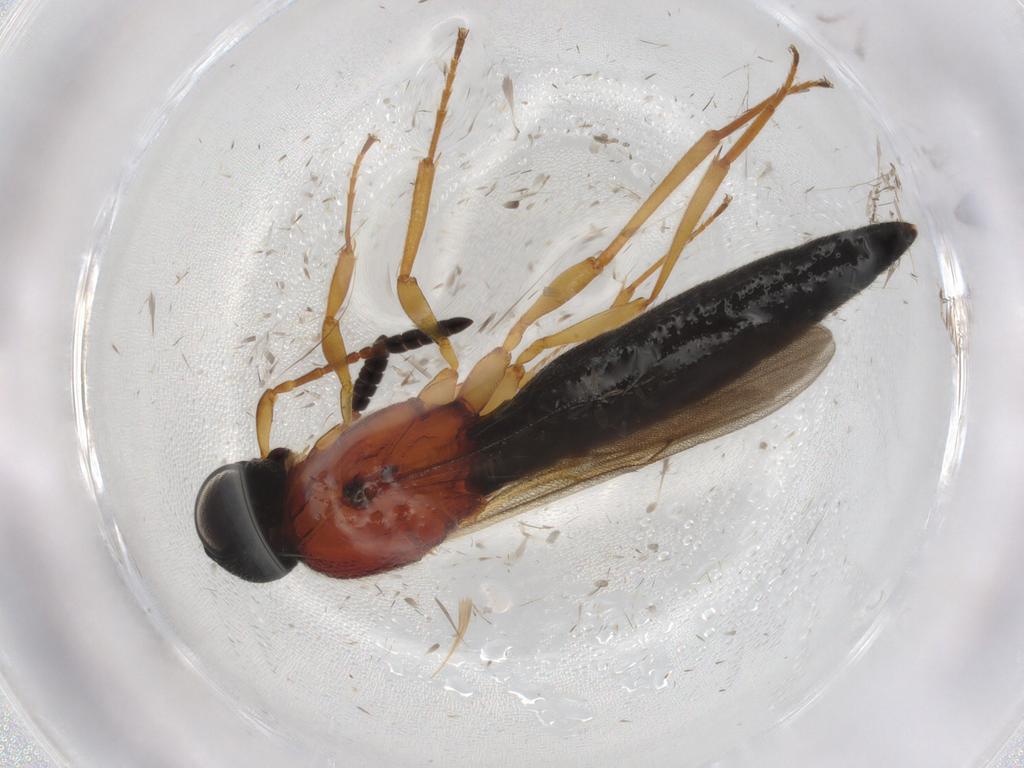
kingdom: Animalia
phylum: Arthropoda
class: Insecta
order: Hymenoptera
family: Scelionidae
